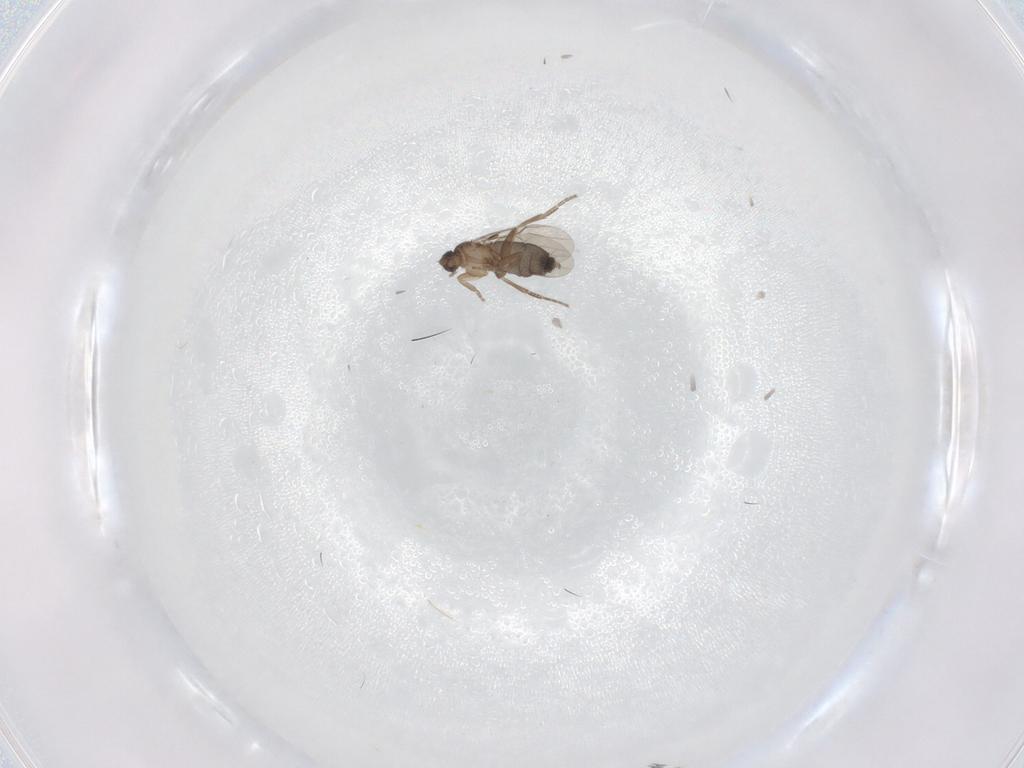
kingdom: Animalia
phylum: Arthropoda
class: Insecta
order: Diptera
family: Phoridae
